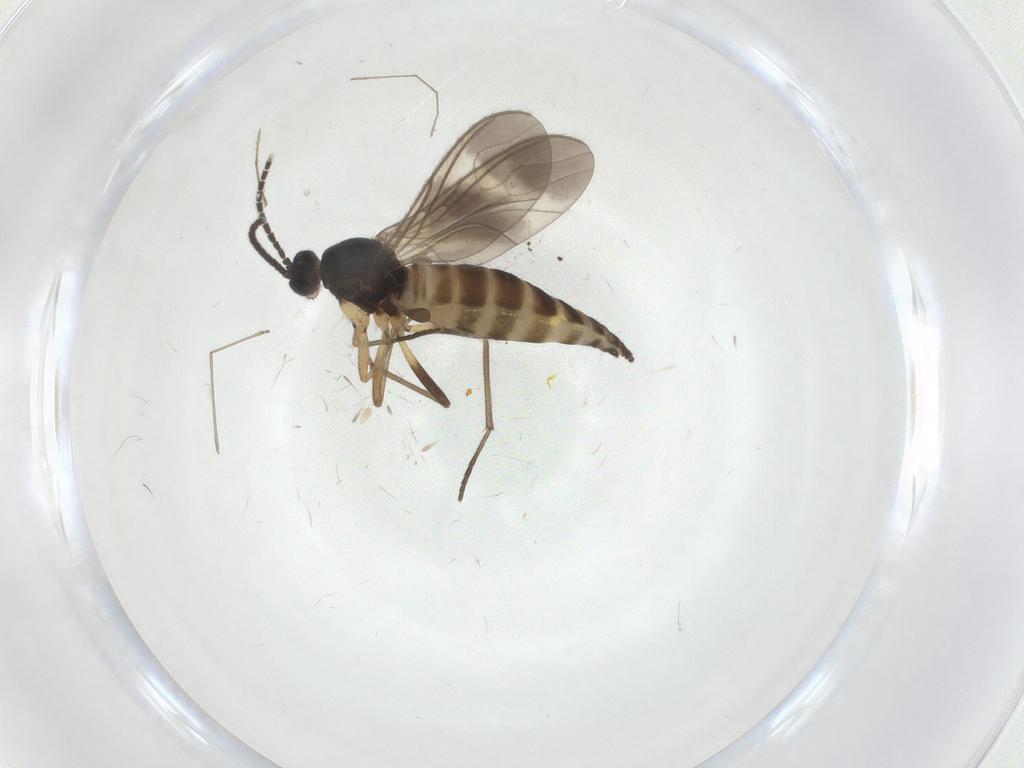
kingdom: Animalia
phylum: Arthropoda
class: Insecta
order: Diptera
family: Sciaridae
